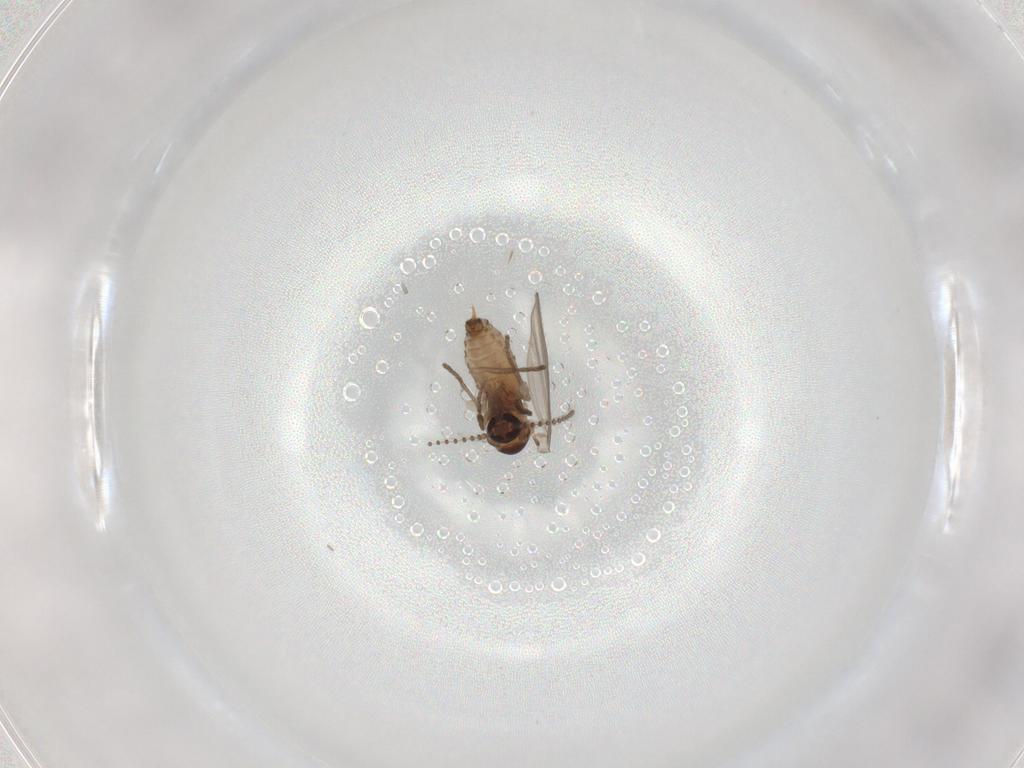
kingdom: Animalia
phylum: Arthropoda
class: Insecta
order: Diptera
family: Psychodidae
